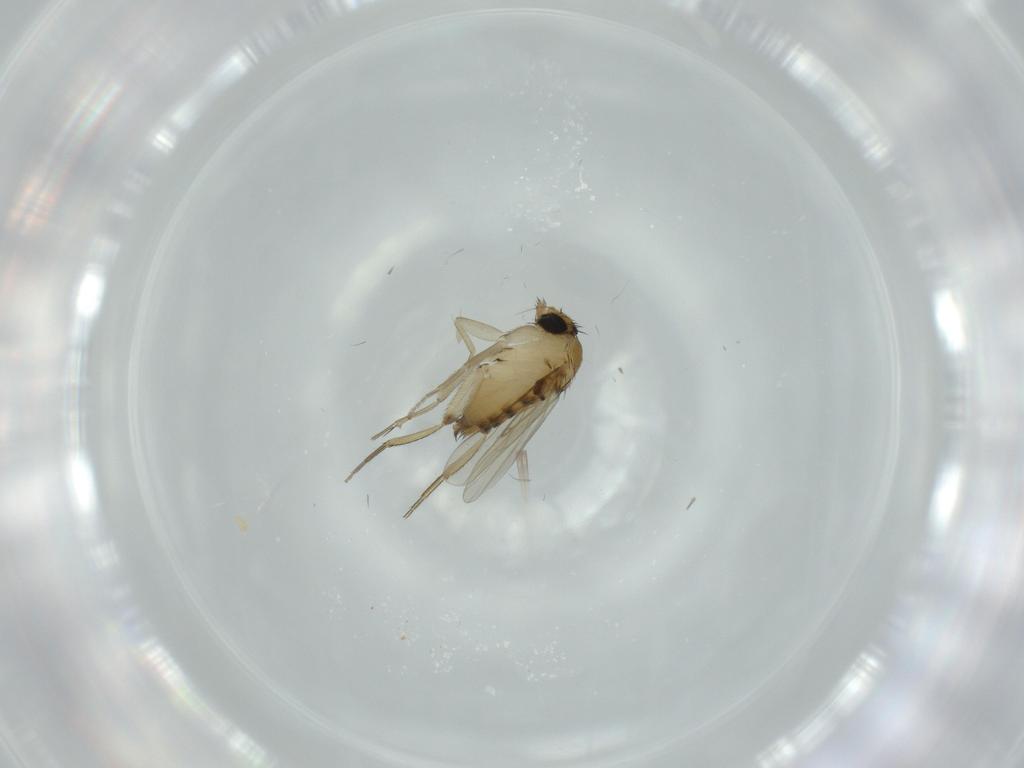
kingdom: Animalia
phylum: Arthropoda
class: Insecta
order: Diptera
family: Phoridae
